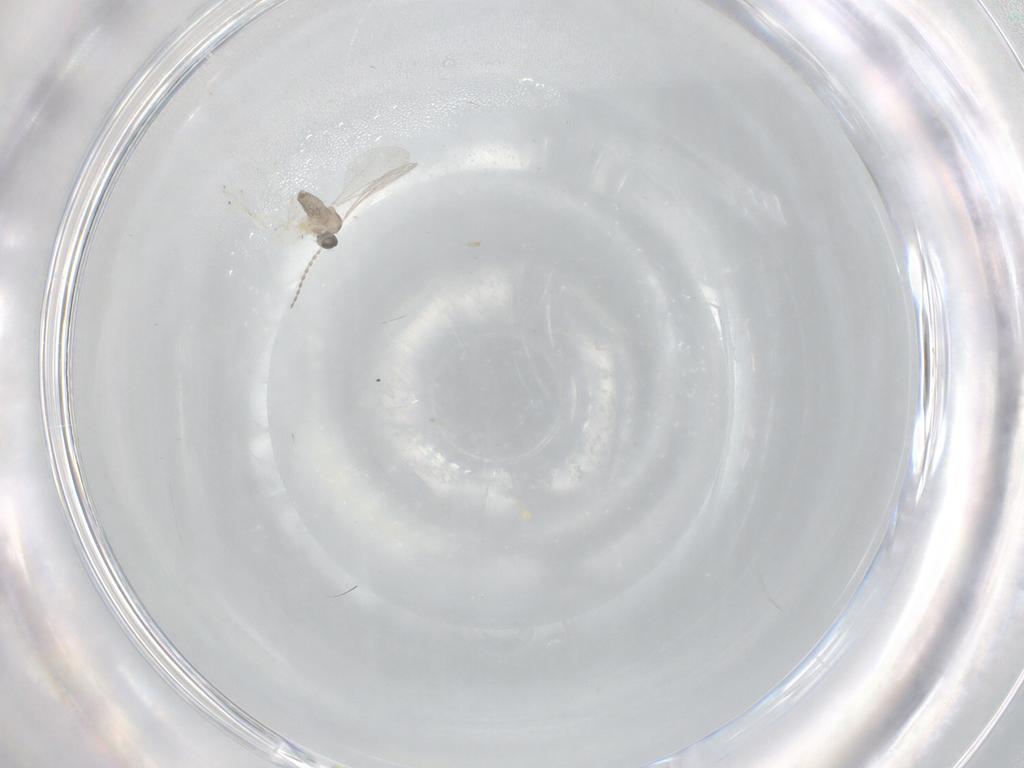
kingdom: Animalia
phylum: Arthropoda
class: Insecta
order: Diptera
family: Cecidomyiidae
